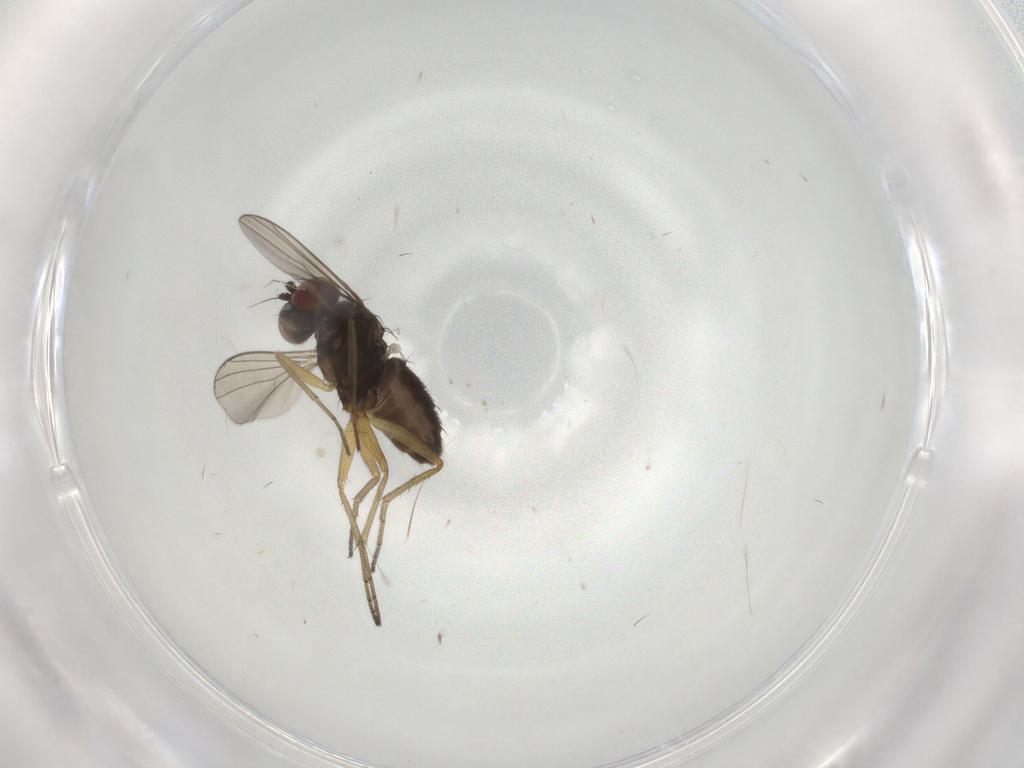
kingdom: Animalia
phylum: Arthropoda
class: Insecta
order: Diptera
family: Dolichopodidae
